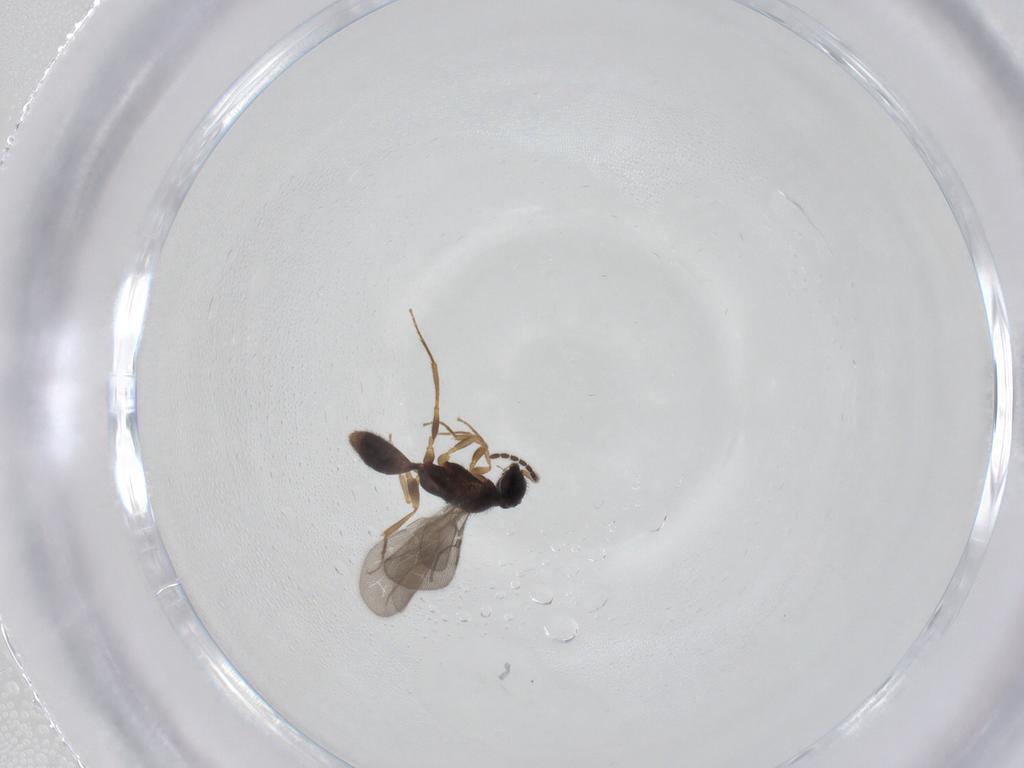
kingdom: Animalia
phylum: Arthropoda
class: Insecta
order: Hymenoptera
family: Bethylidae
